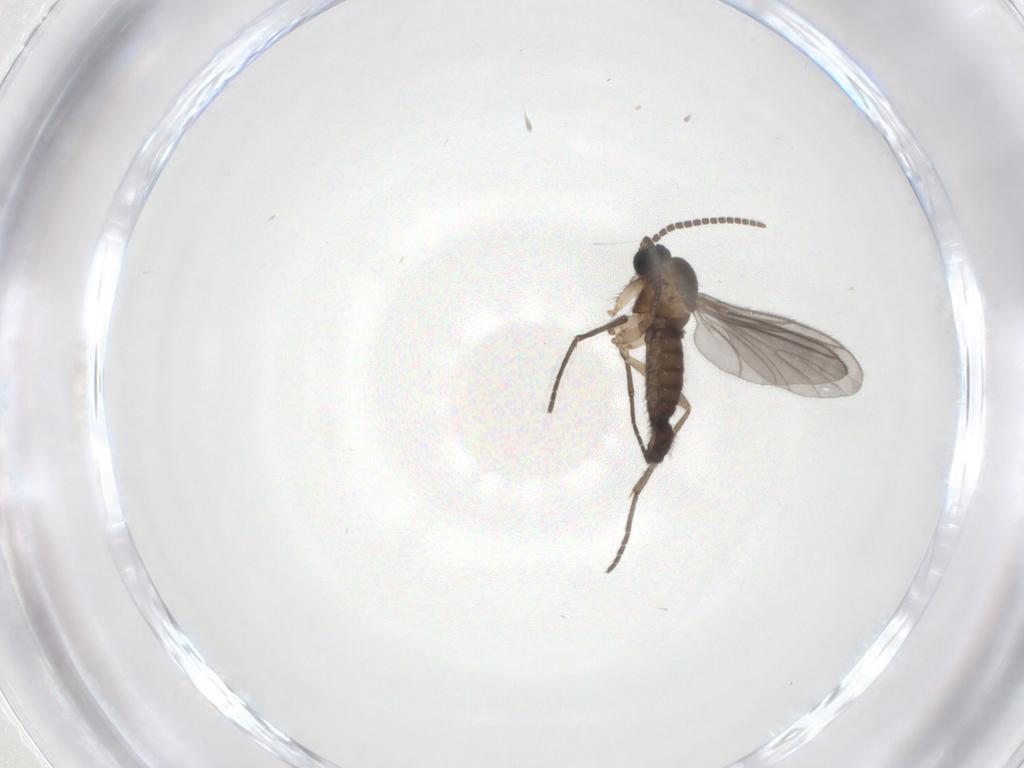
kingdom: Animalia
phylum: Arthropoda
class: Insecta
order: Diptera
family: Sciaridae
